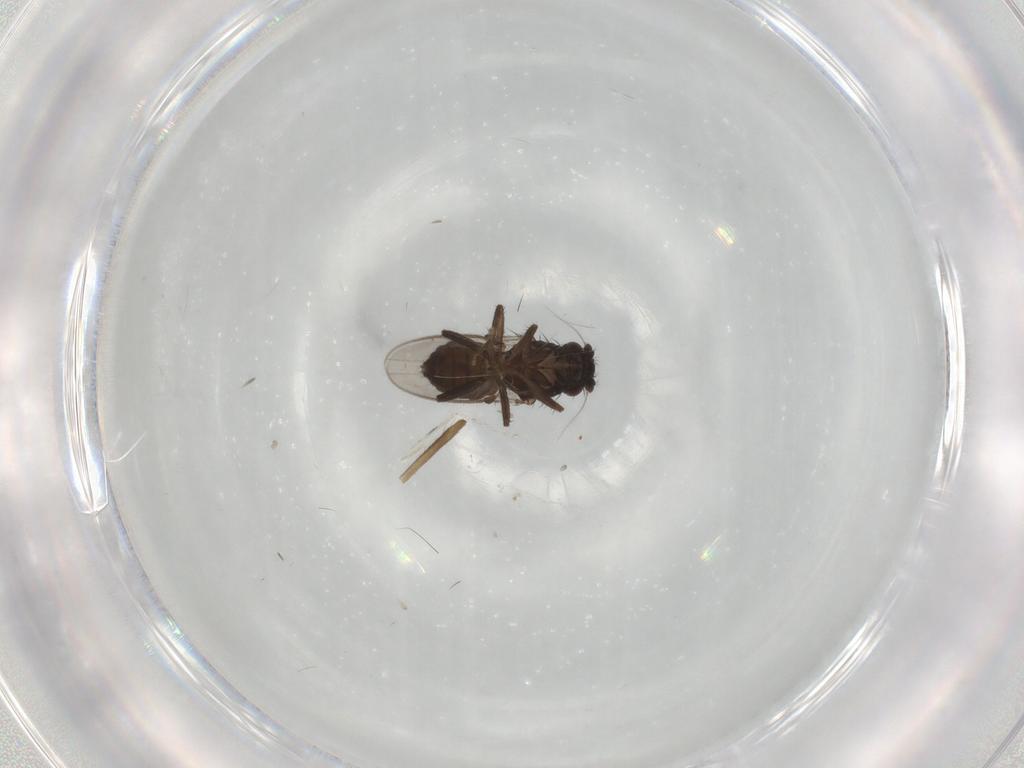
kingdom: Animalia
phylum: Arthropoda
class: Insecta
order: Diptera
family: Sphaeroceridae
